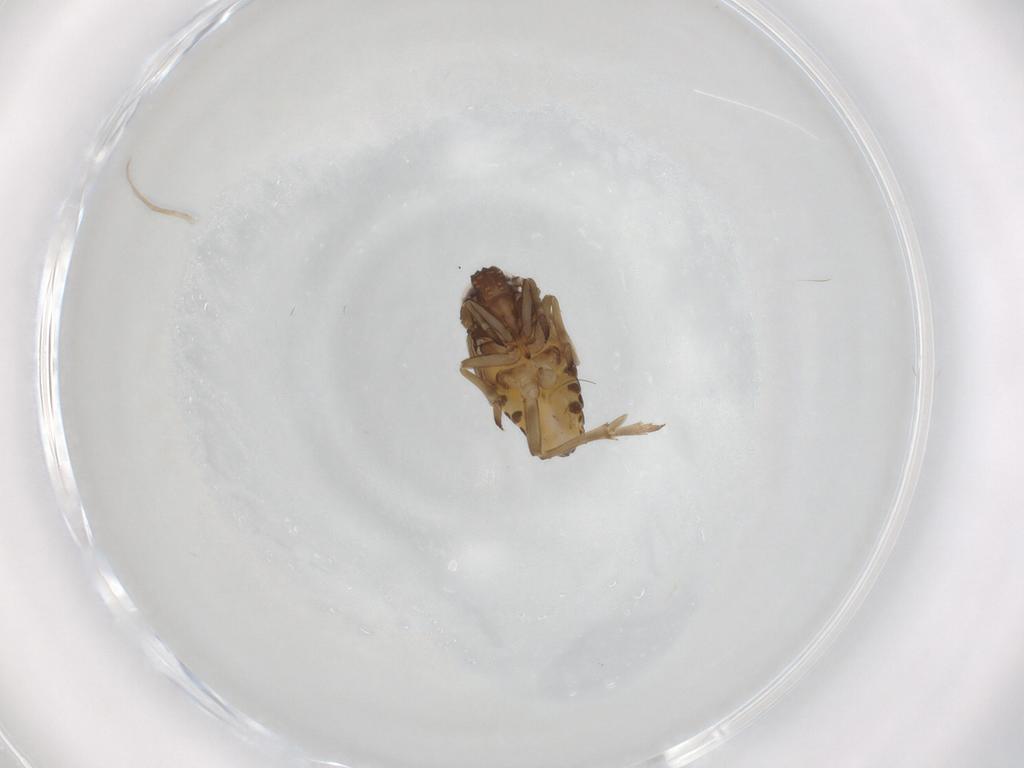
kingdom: Animalia
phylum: Arthropoda
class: Insecta
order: Hemiptera
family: Delphacidae
